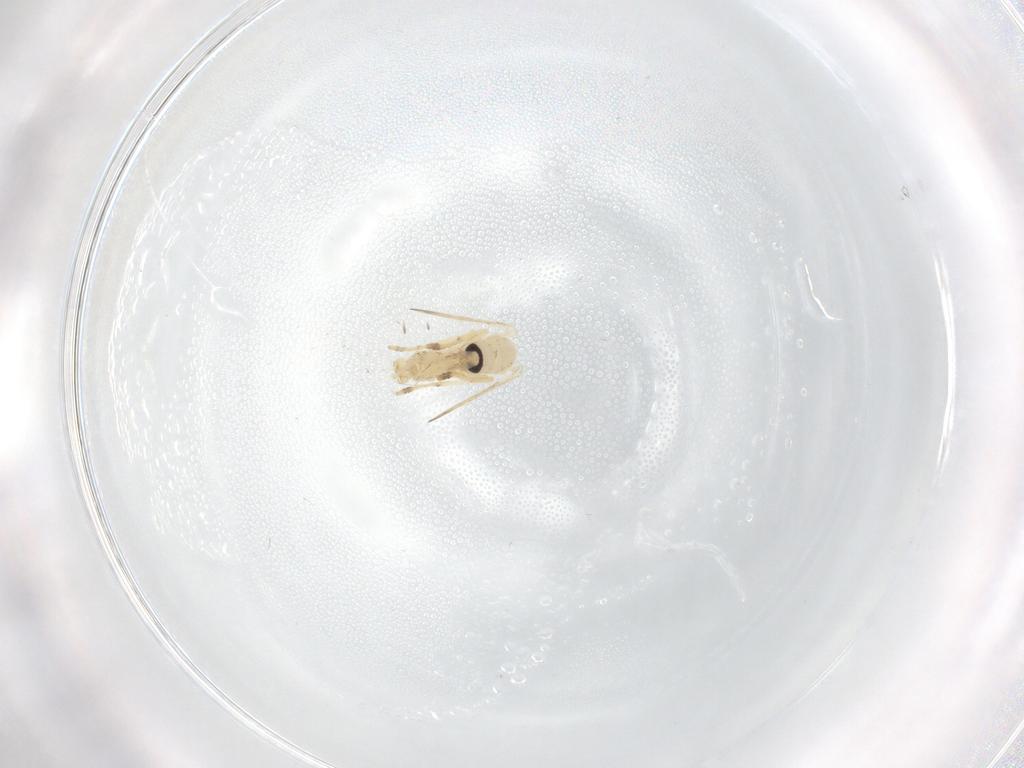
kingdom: Animalia
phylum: Arthropoda
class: Insecta
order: Diptera
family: Psychodidae
